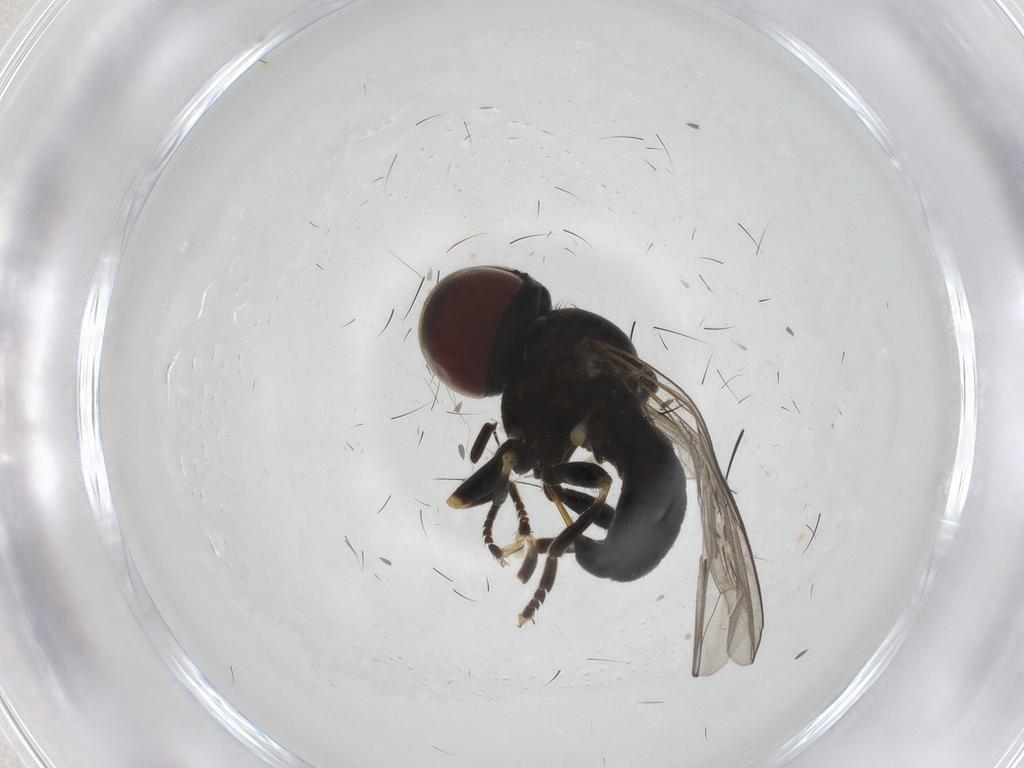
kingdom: Animalia
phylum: Arthropoda
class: Insecta
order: Diptera
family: Pipunculidae
